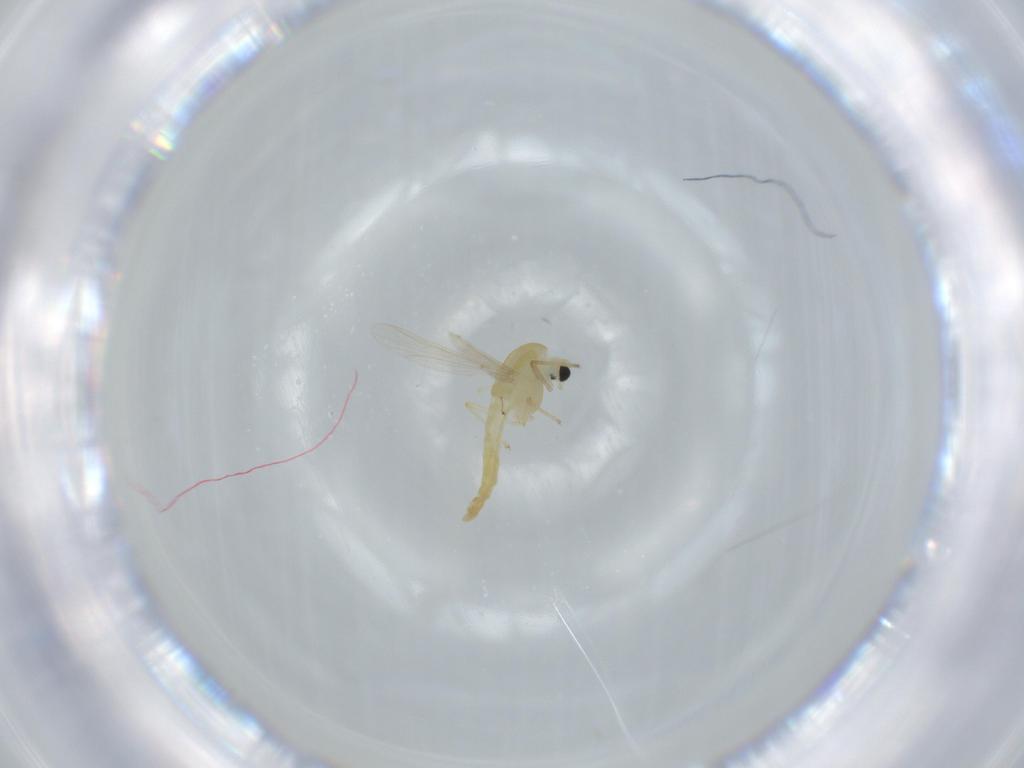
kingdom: Animalia
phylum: Arthropoda
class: Insecta
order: Diptera
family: Chironomidae
